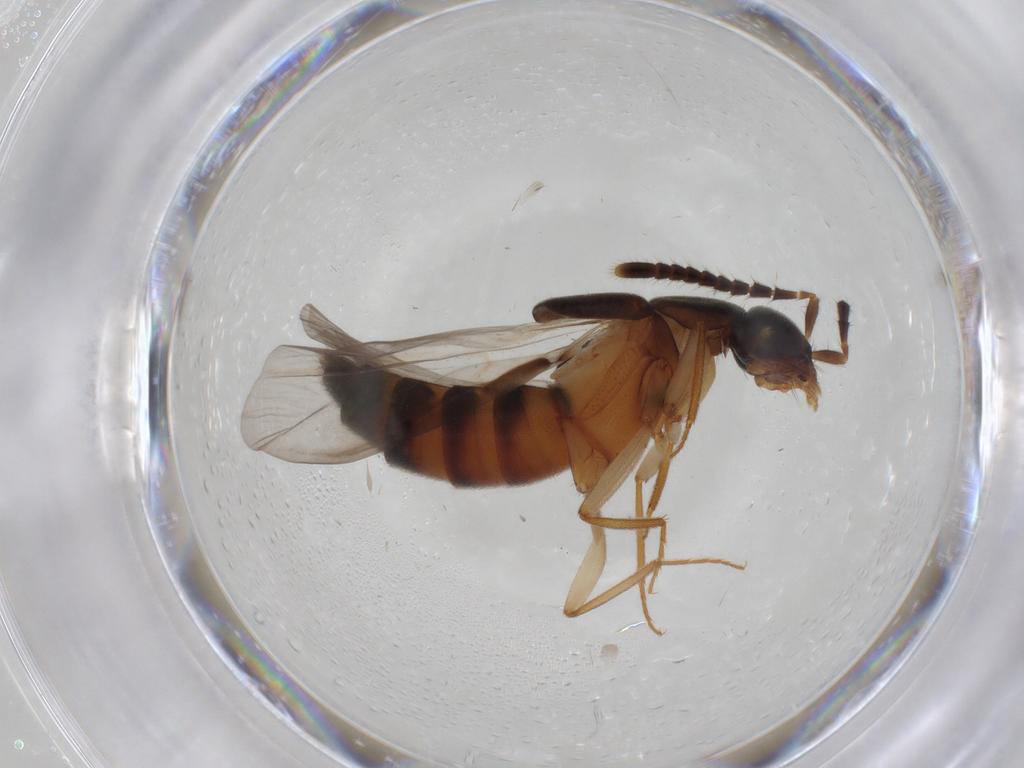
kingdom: Animalia
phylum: Arthropoda
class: Insecta
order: Coleoptera
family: Staphylinidae
